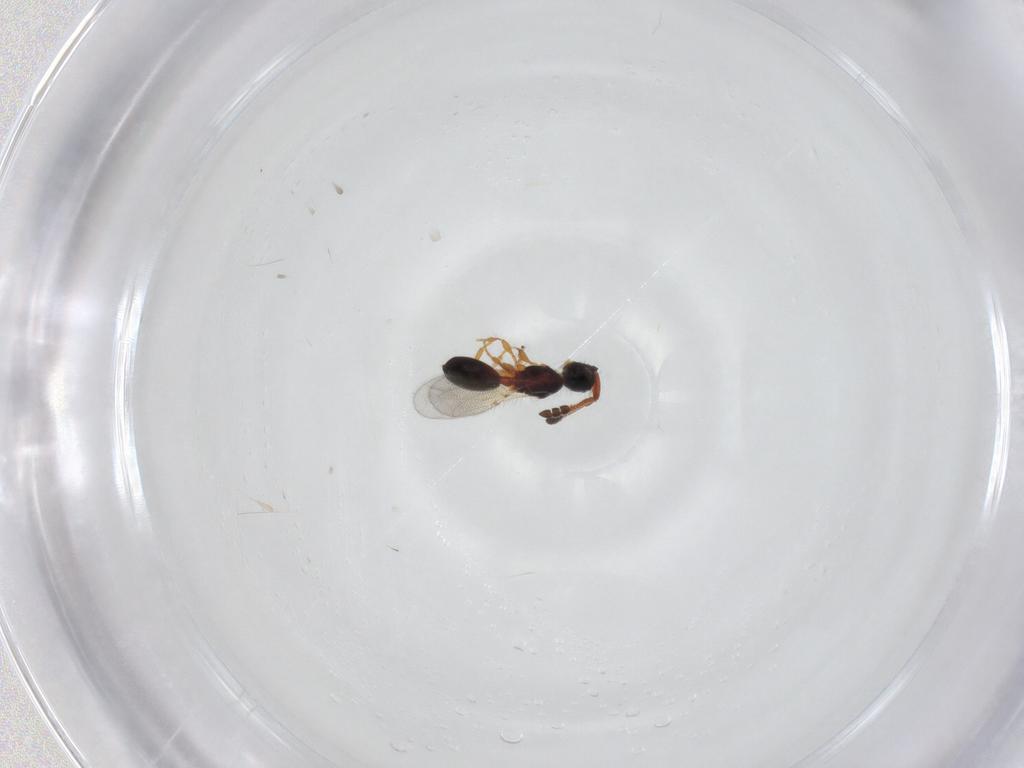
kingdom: Animalia
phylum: Arthropoda
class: Insecta
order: Hymenoptera
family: Diapriidae
